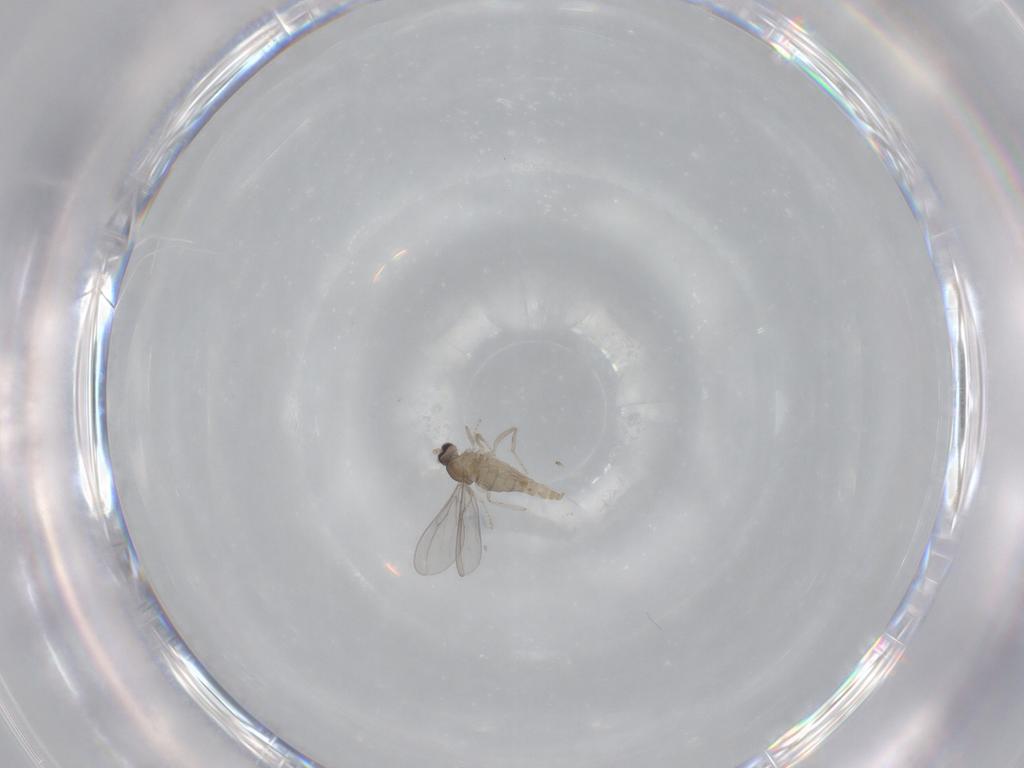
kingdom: Animalia
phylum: Arthropoda
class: Insecta
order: Diptera
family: Cecidomyiidae
